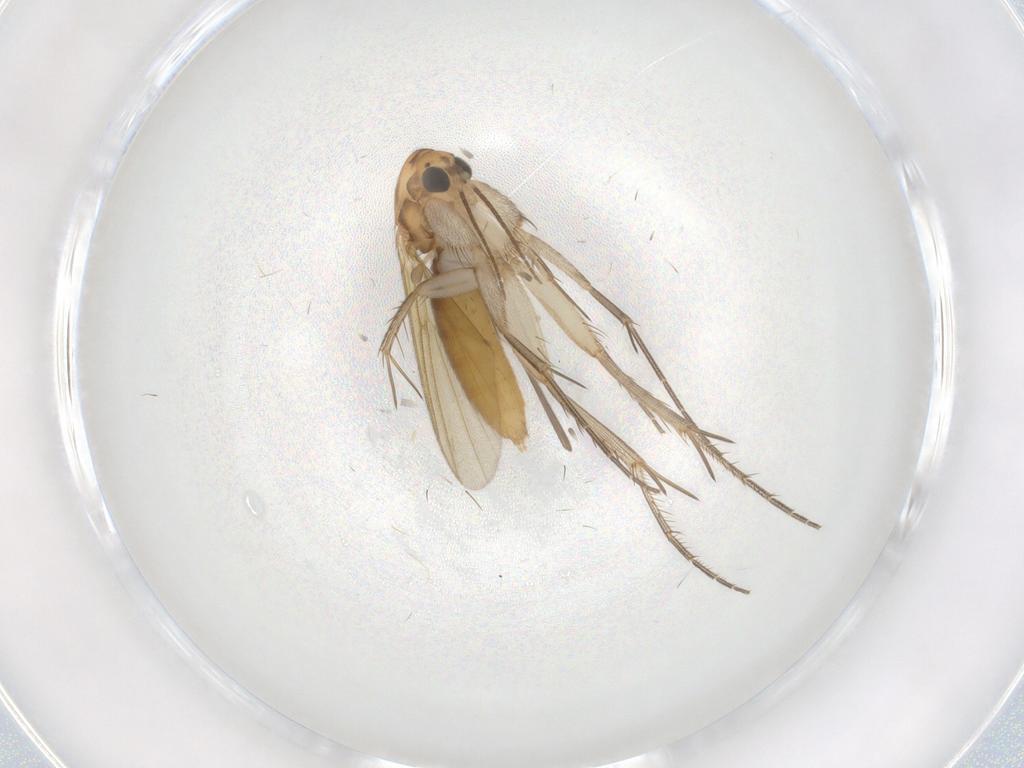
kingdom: Animalia
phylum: Arthropoda
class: Insecta
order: Diptera
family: Mycetophilidae
